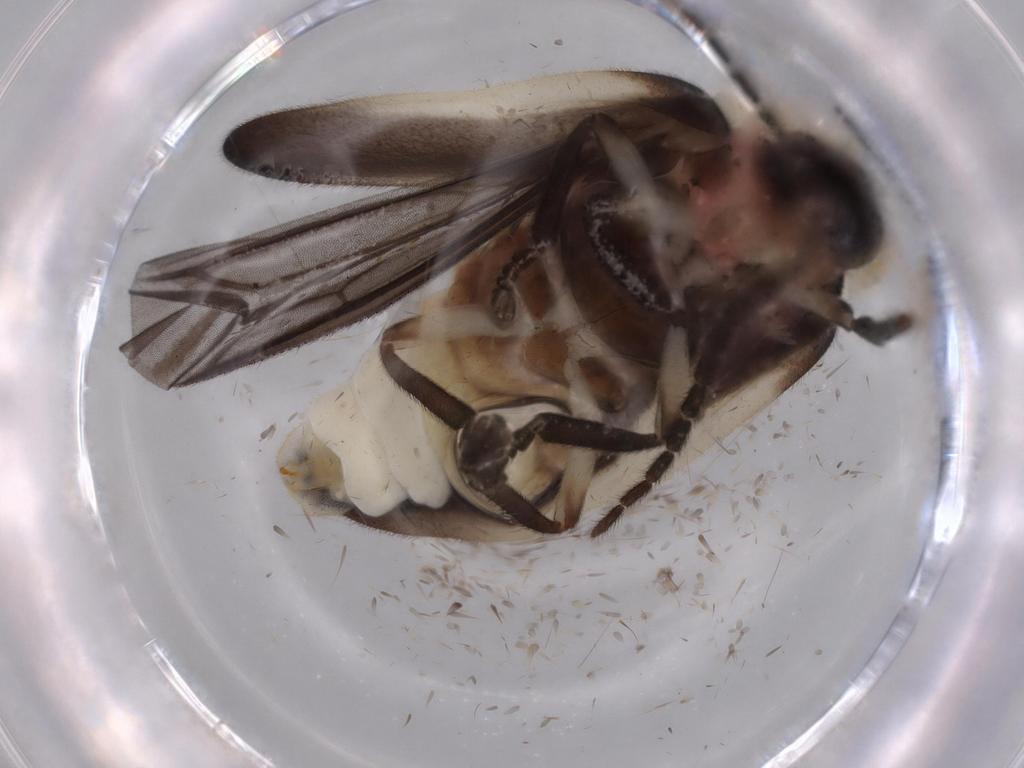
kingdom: Animalia
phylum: Arthropoda
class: Insecta
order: Coleoptera
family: Lampyridae
